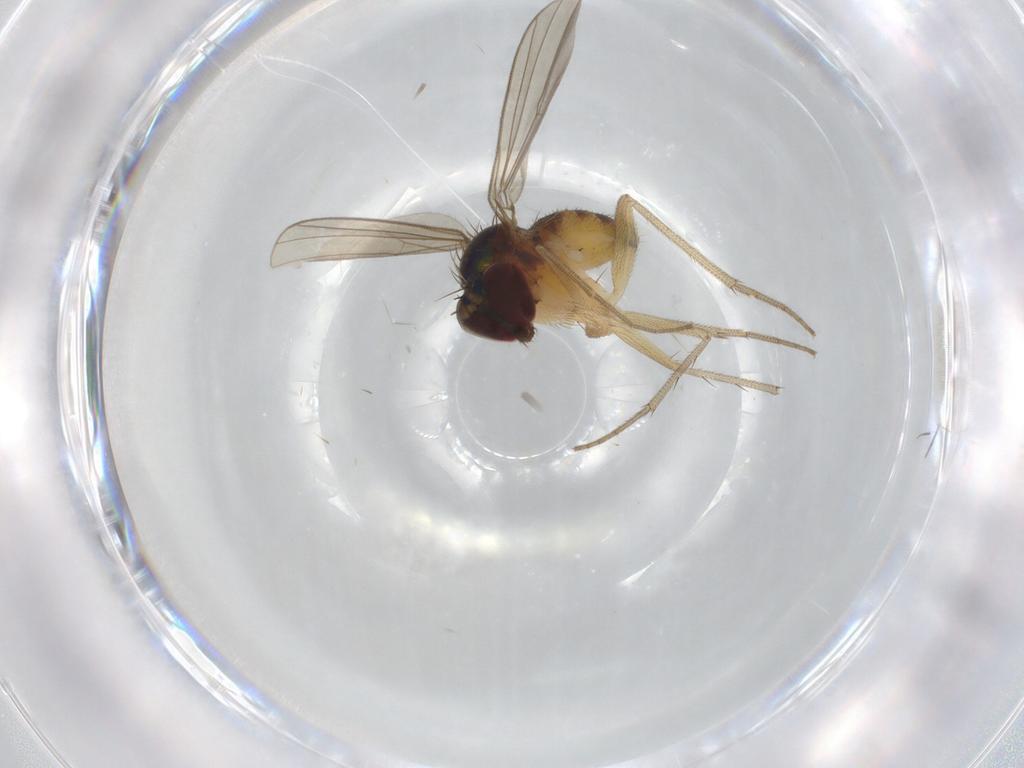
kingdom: Animalia
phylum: Arthropoda
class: Insecta
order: Diptera
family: Dolichopodidae
